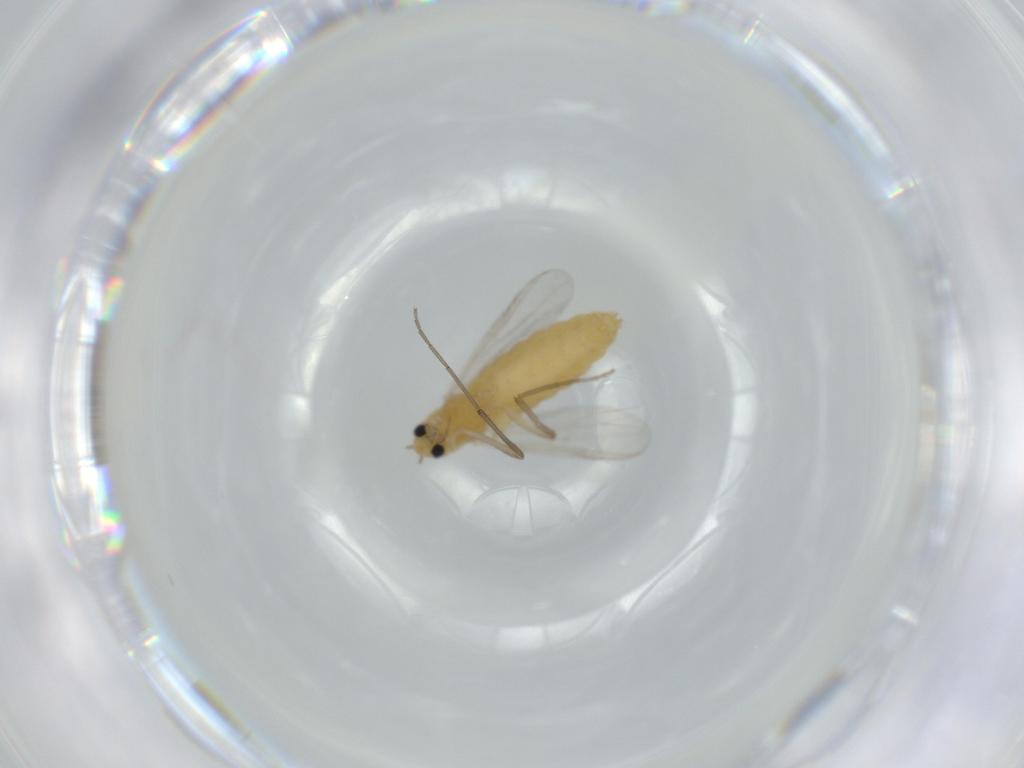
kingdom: Animalia
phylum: Arthropoda
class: Insecta
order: Diptera
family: Chironomidae
